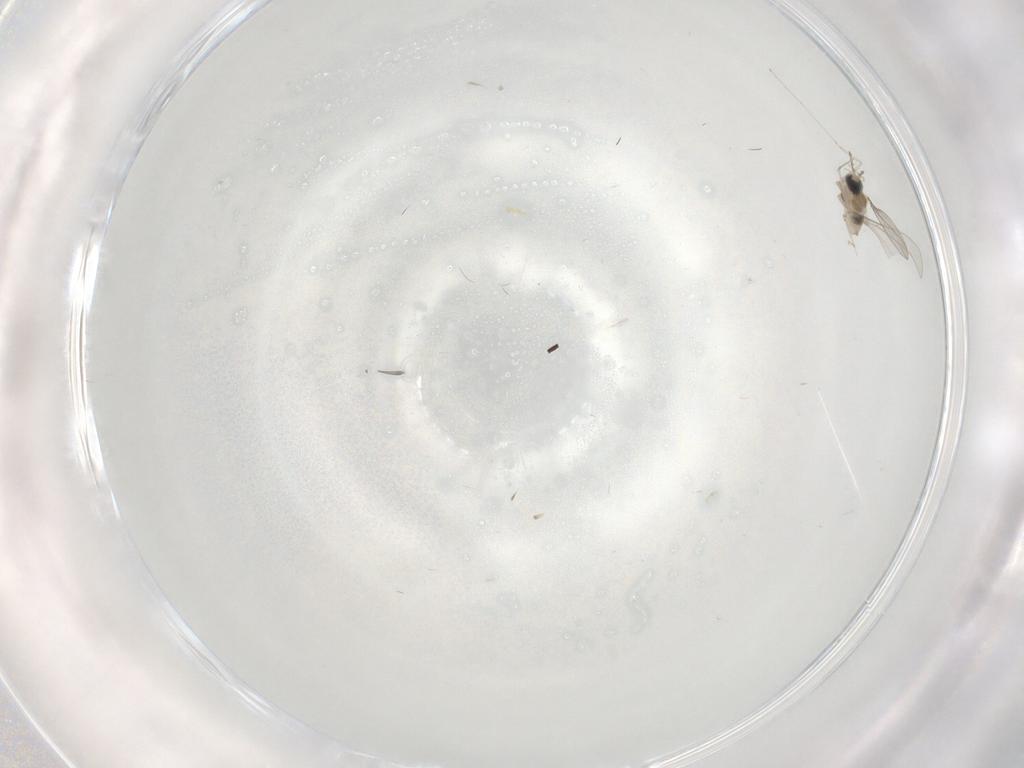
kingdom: Animalia
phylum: Arthropoda
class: Insecta
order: Diptera
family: Cecidomyiidae
